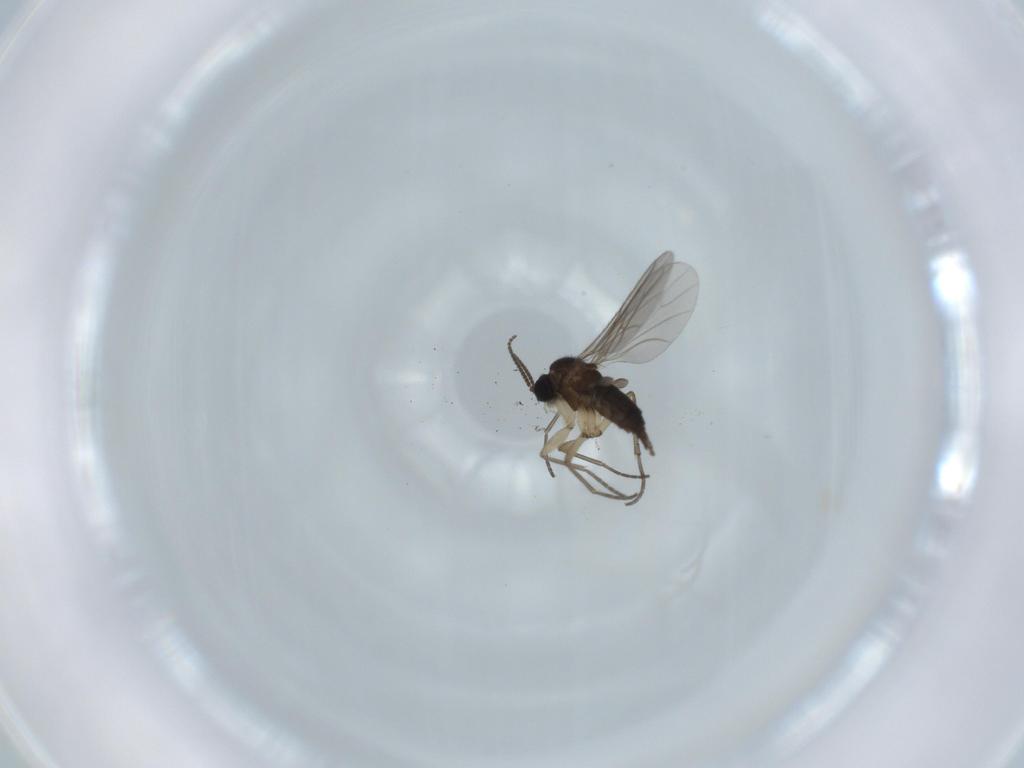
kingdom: Animalia
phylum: Arthropoda
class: Insecta
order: Diptera
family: Sciaridae
